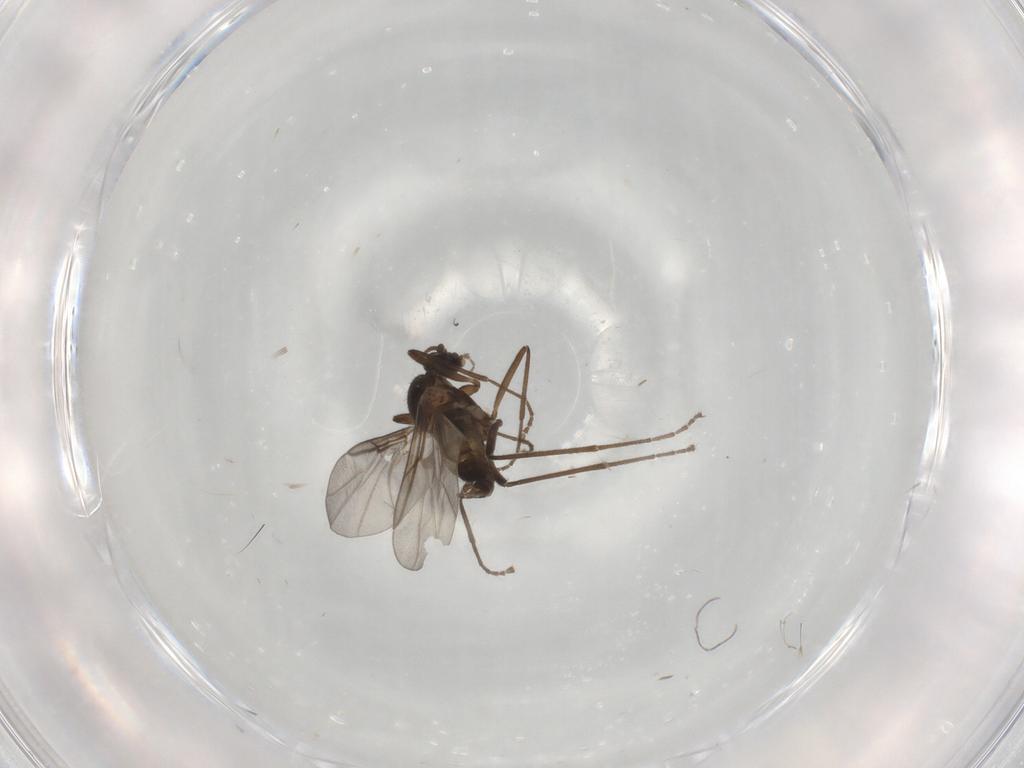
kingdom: Animalia
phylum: Arthropoda
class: Insecta
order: Diptera
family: Cecidomyiidae
